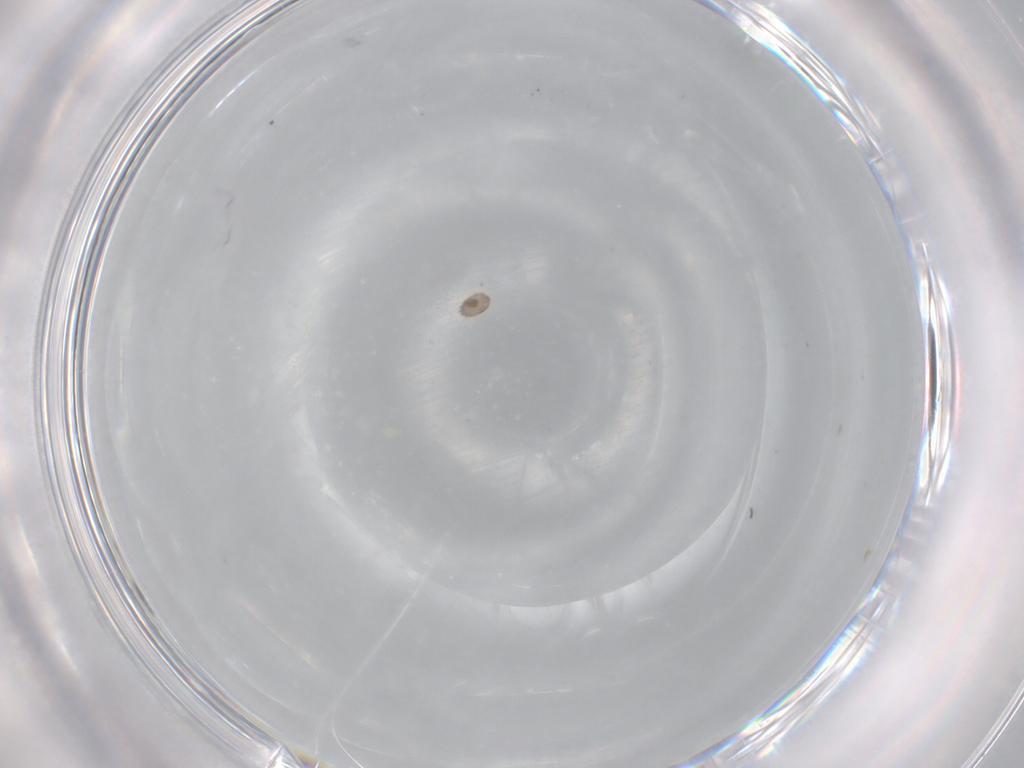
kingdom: Animalia
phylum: Arthropoda
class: Arachnida
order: Trombidiformes
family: Anystidae
